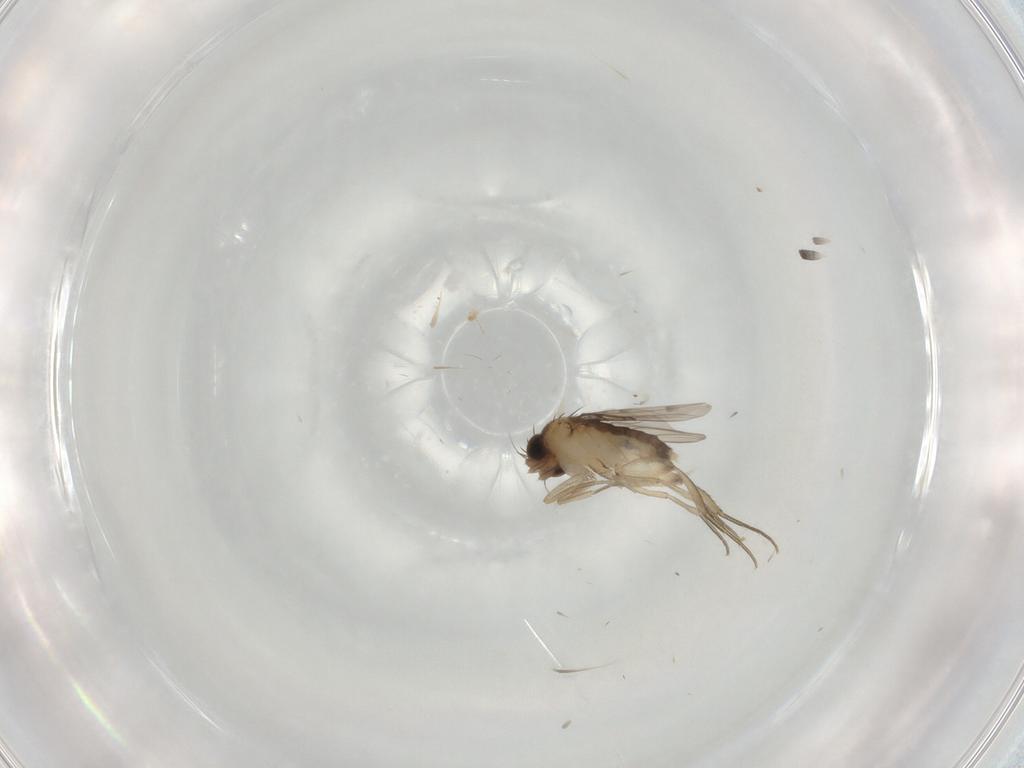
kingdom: Animalia
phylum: Arthropoda
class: Insecta
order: Diptera
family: Phoridae
